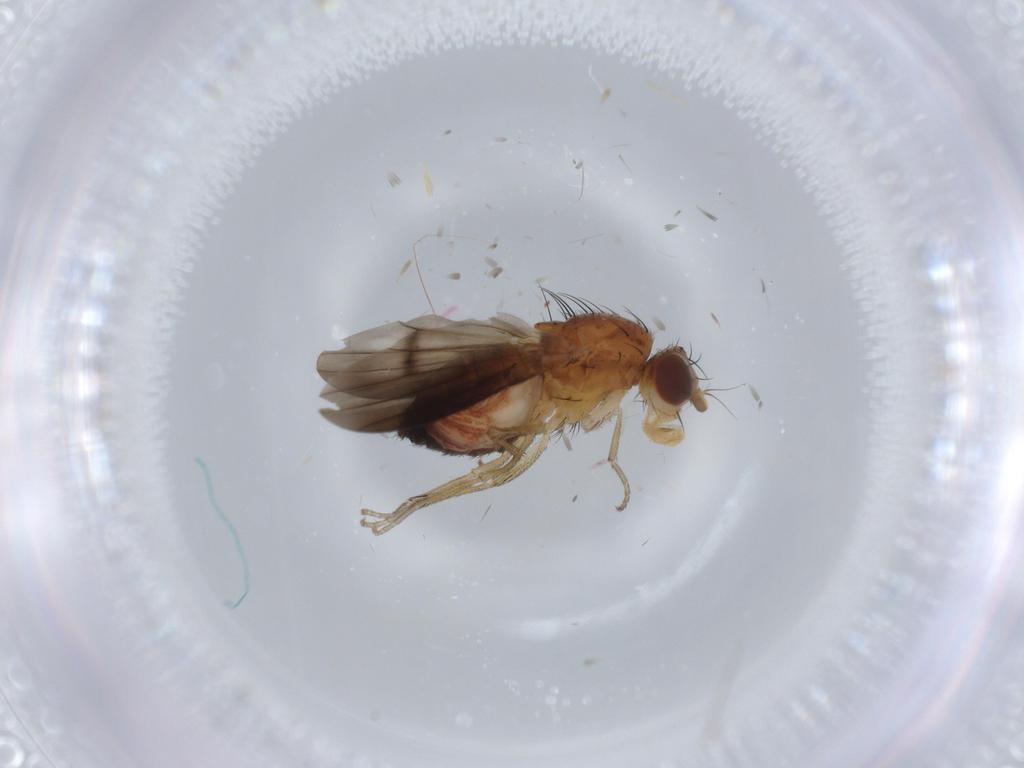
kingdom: Animalia
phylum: Arthropoda
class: Insecta
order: Diptera
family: Heleomyzidae
